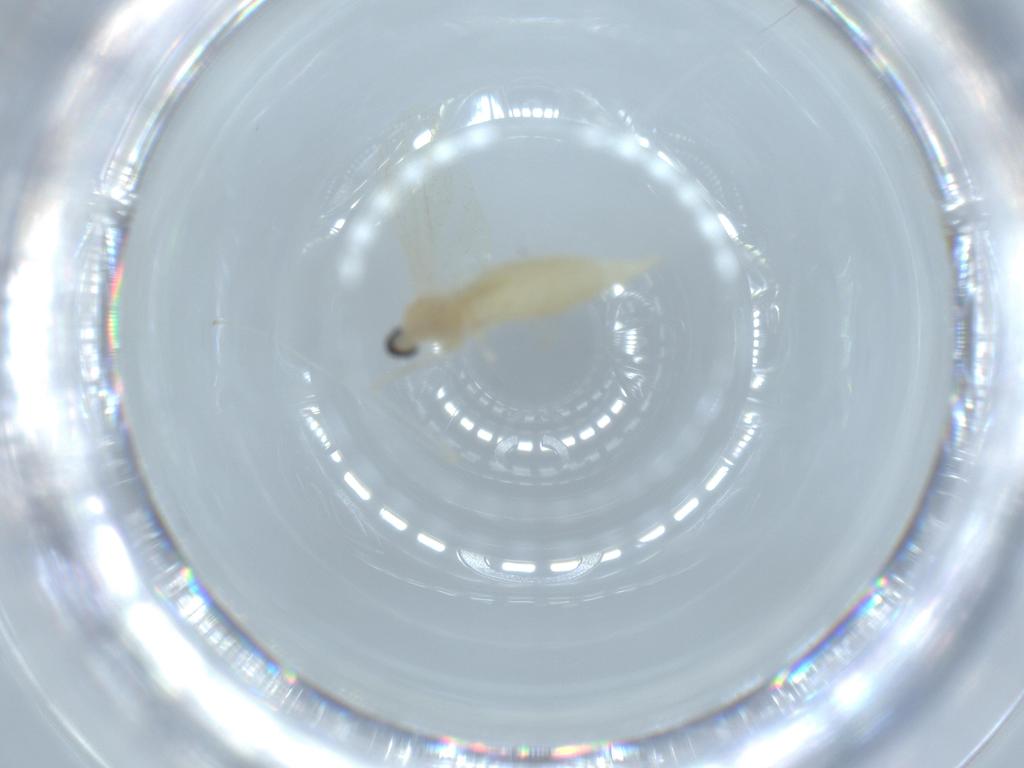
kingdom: Animalia
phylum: Arthropoda
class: Insecta
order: Diptera
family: Cecidomyiidae
